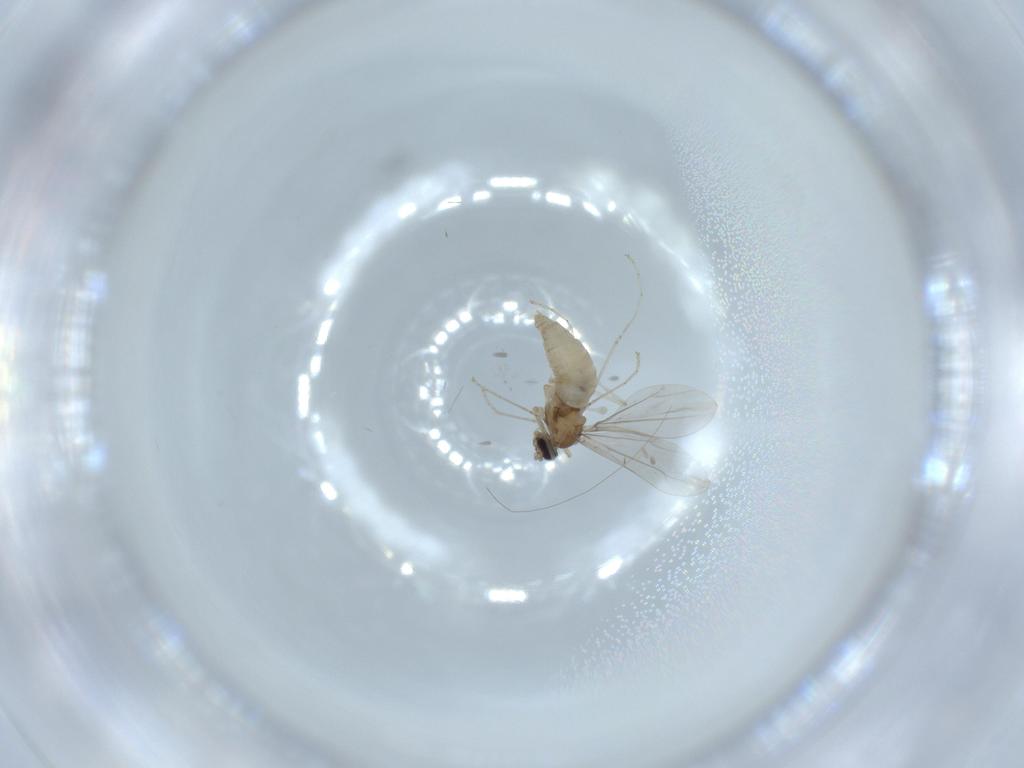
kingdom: Animalia
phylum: Arthropoda
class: Insecta
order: Diptera
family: Cecidomyiidae
